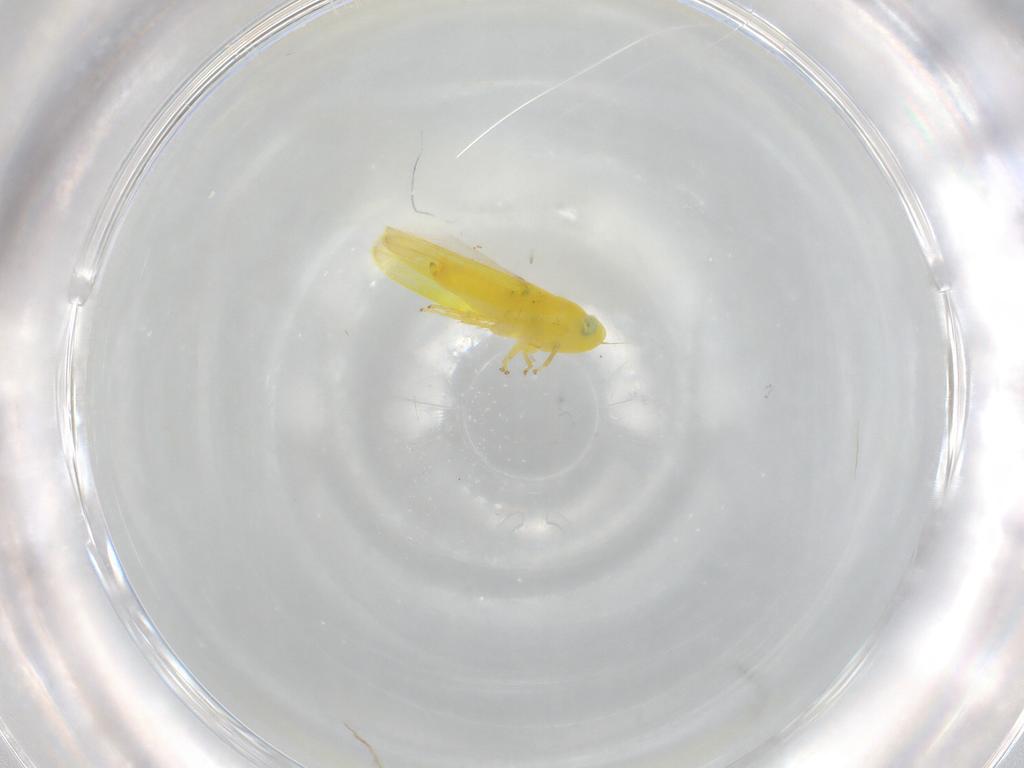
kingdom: Animalia
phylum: Arthropoda
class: Insecta
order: Hemiptera
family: Cicadellidae
